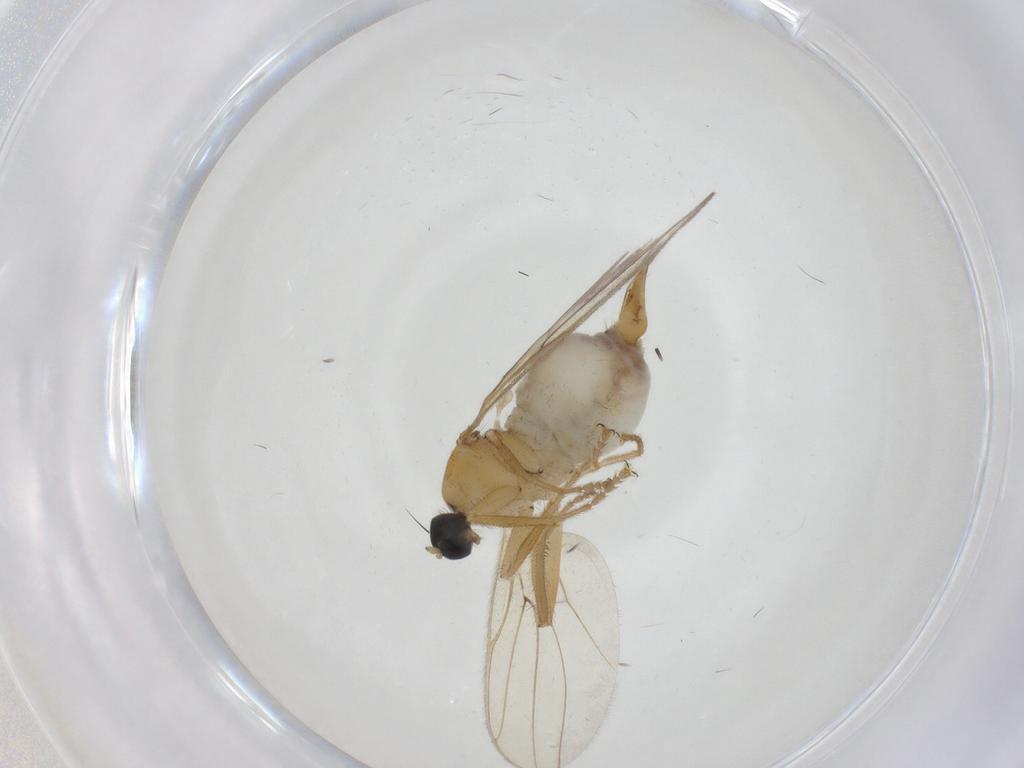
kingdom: Animalia
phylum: Arthropoda
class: Insecta
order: Diptera
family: Hybotidae
